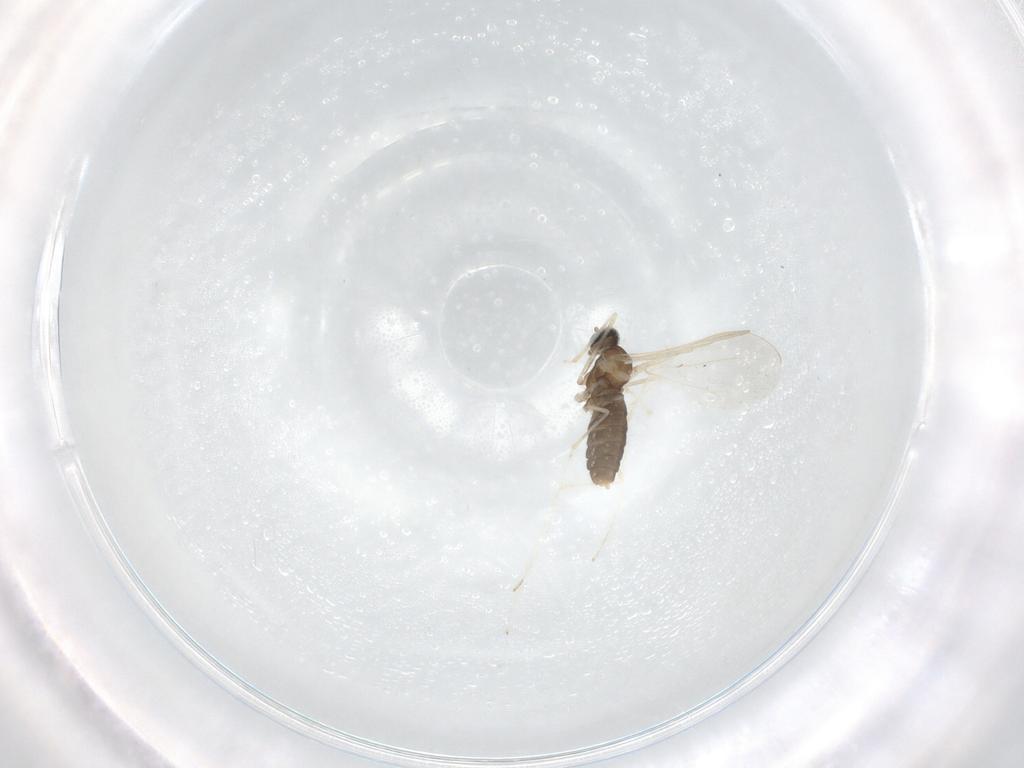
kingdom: Animalia
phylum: Arthropoda
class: Insecta
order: Diptera
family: Cecidomyiidae
